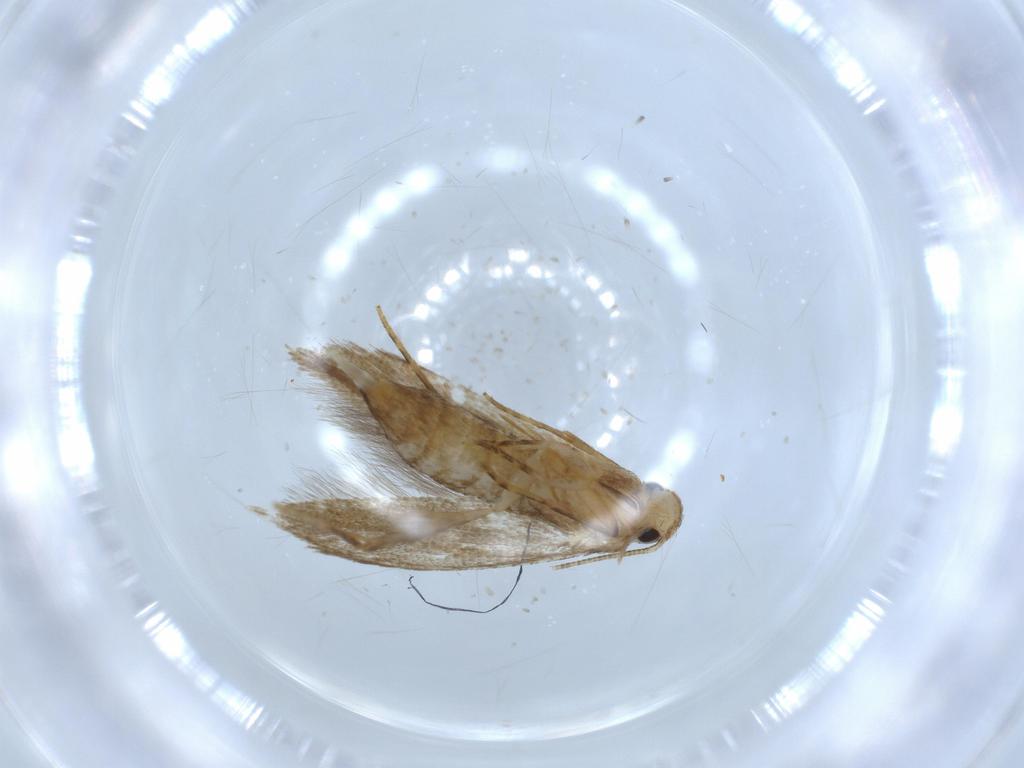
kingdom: Animalia
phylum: Arthropoda
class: Insecta
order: Lepidoptera
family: Tineidae
